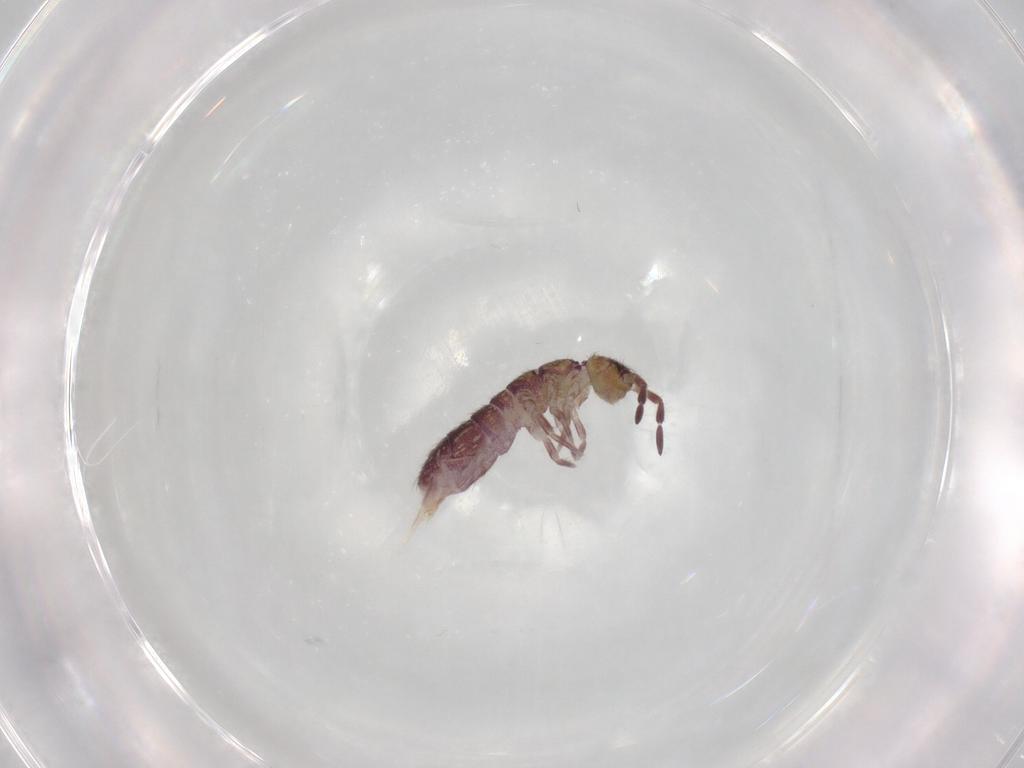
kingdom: Animalia
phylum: Arthropoda
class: Collembola
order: Entomobryomorpha
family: Isotomidae
